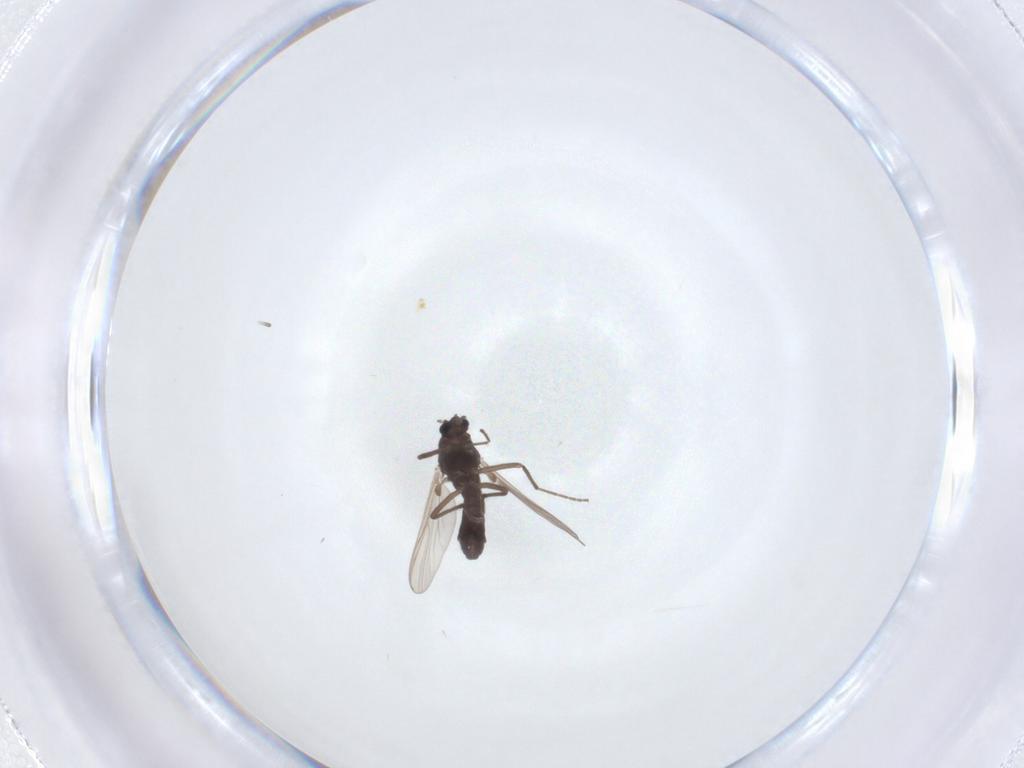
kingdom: Animalia
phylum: Arthropoda
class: Insecta
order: Diptera
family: Chironomidae
